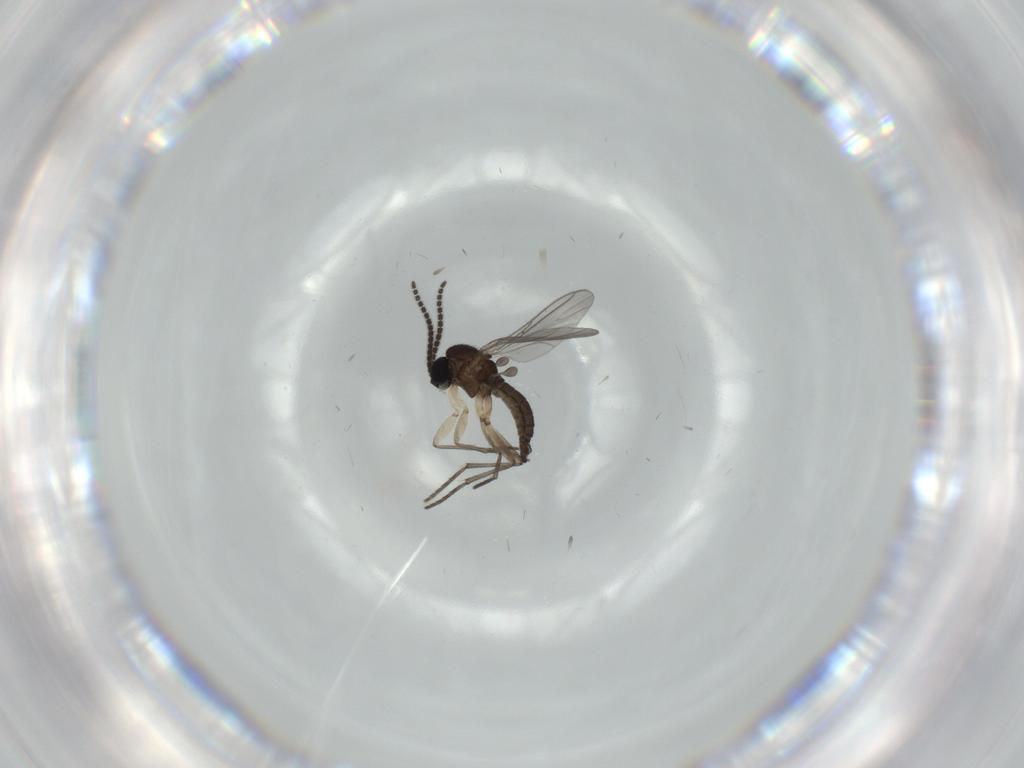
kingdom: Animalia
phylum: Arthropoda
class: Insecta
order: Diptera
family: Sciaridae
